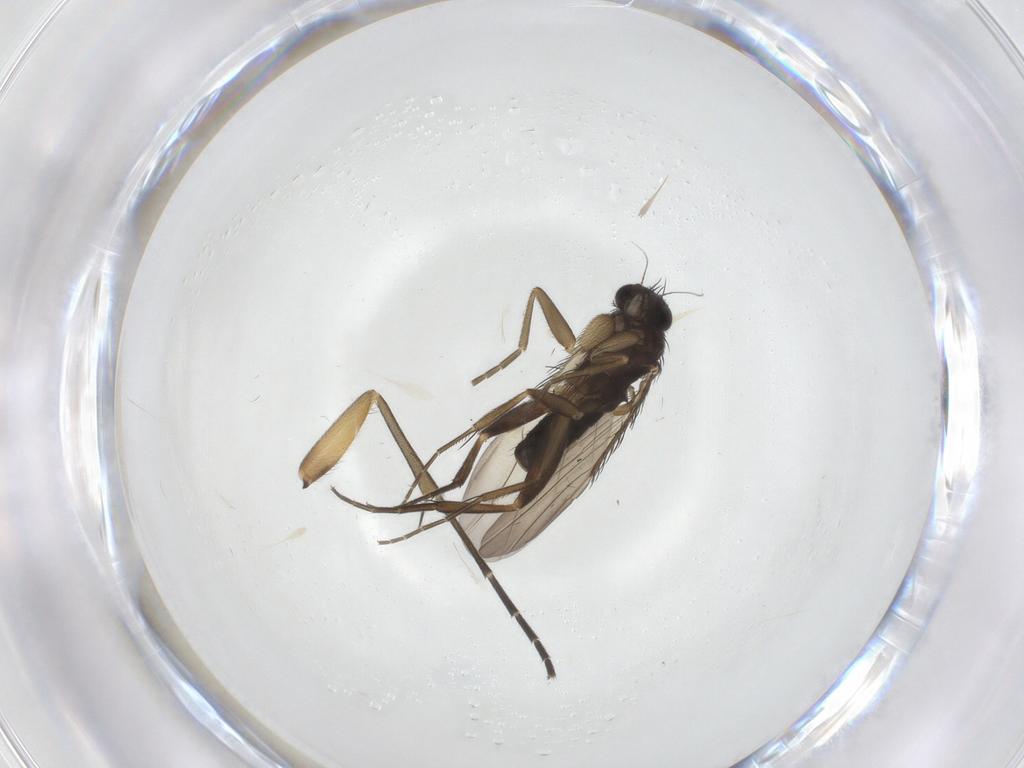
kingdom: Animalia
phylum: Arthropoda
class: Insecta
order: Diptera
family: Phoridae
